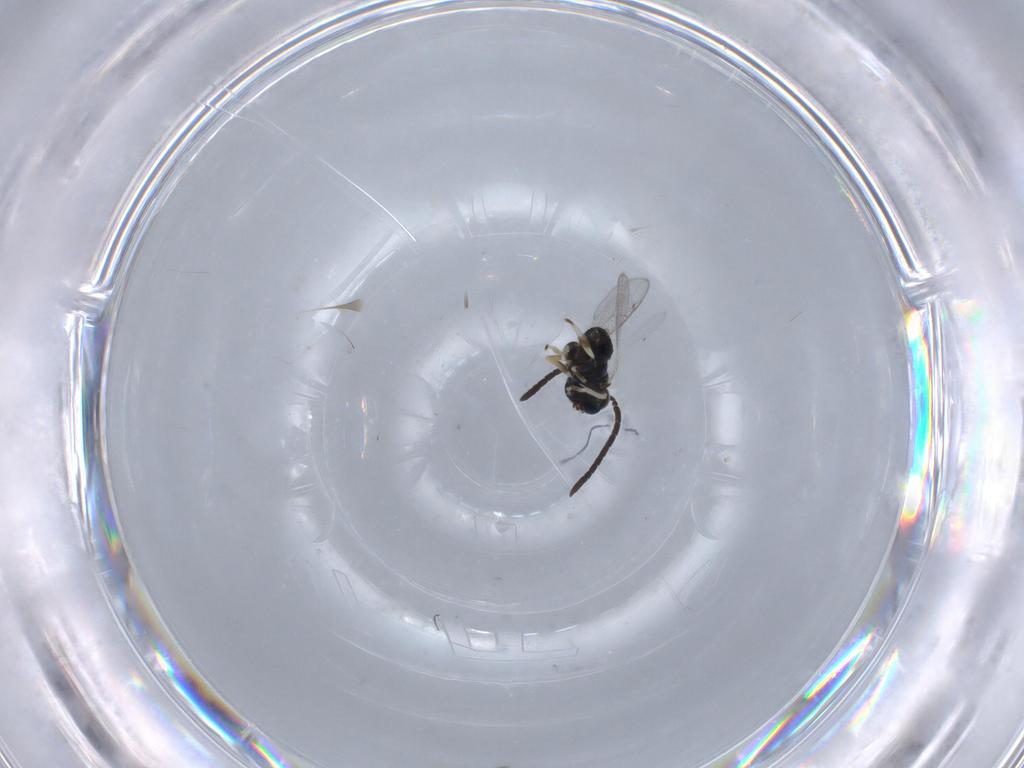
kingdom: Animalia
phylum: Arthropoda
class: Insecta
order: Hymenoptera
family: Eupelmidae
